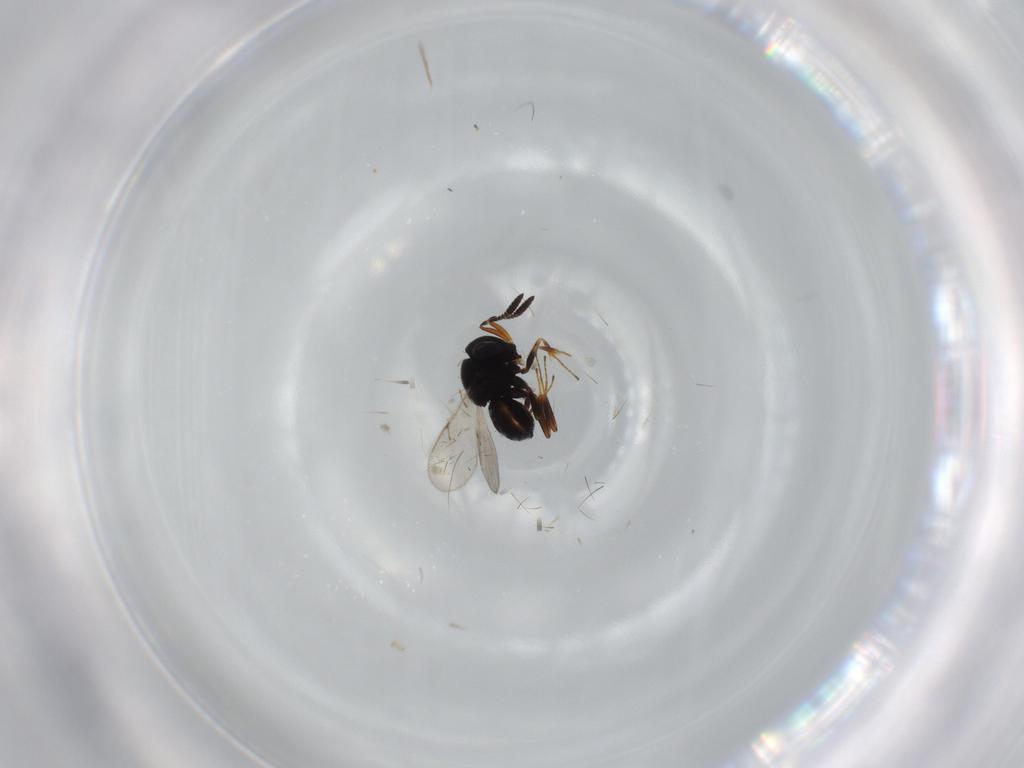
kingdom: Animalia
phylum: Arthropoda
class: Insecta
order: Hymenoptera
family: Scelionidae
